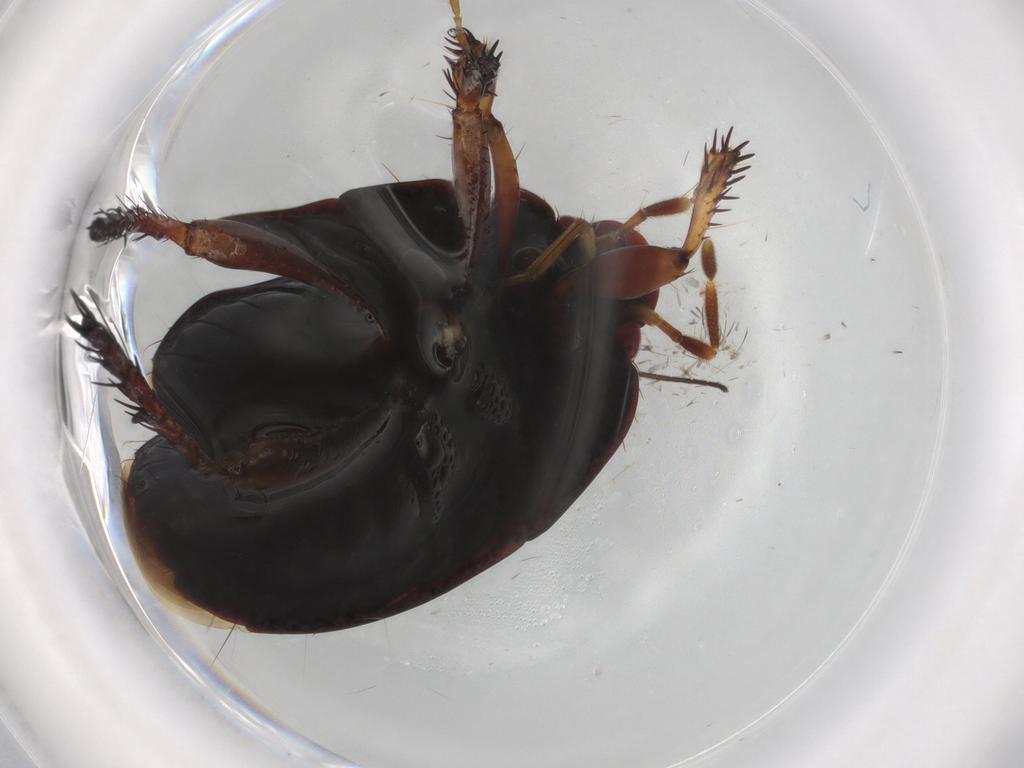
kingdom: Animalia
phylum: Arthropoda
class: Insecta
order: Hemiptera
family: Cydnidae
